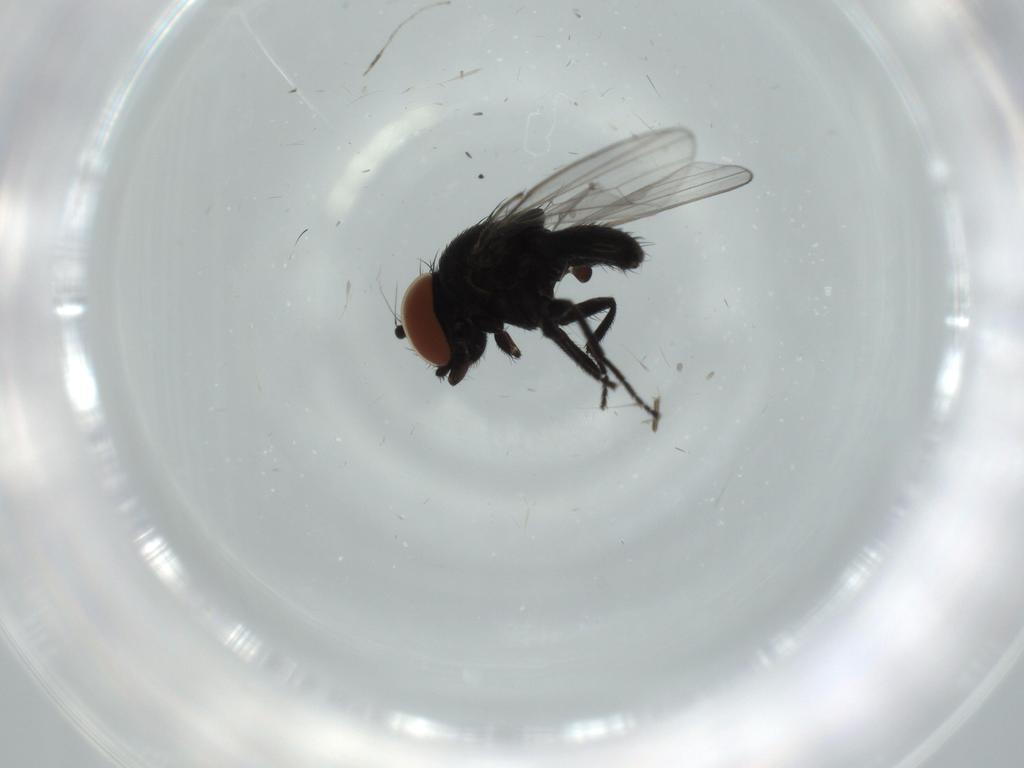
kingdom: Animalia
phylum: Arthropoda
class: Insecta
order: Diptera
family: Milichiidae
